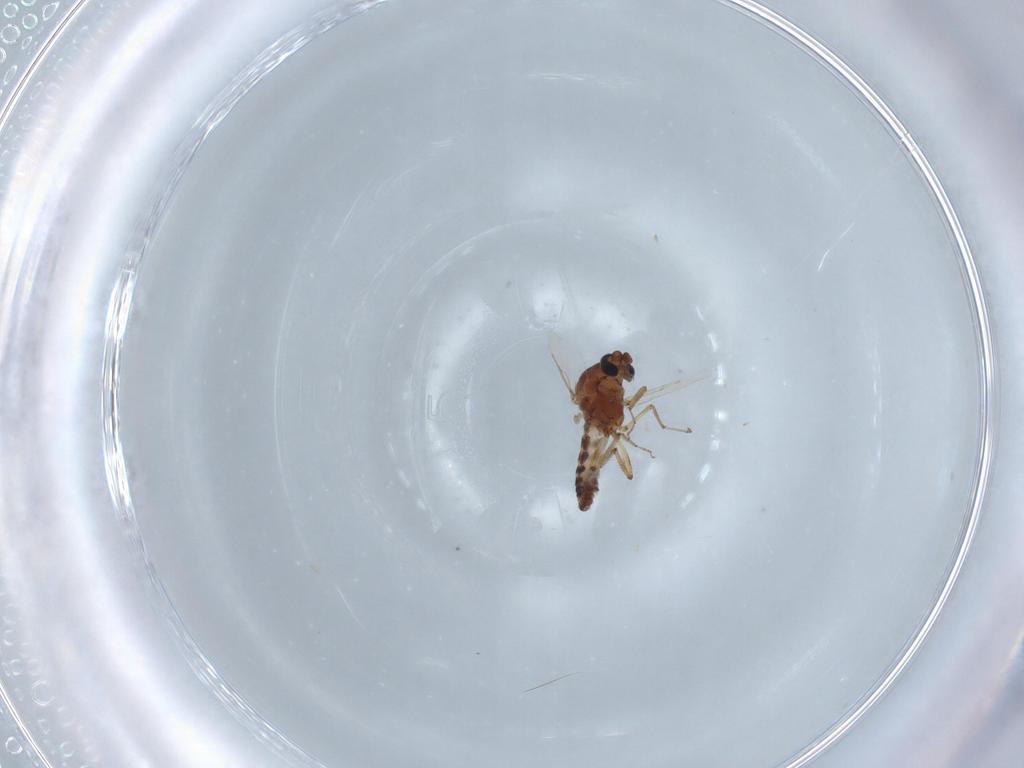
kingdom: Animalia
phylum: Arthropoda
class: Insecta
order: Diptera
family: Ceratopogonidae
